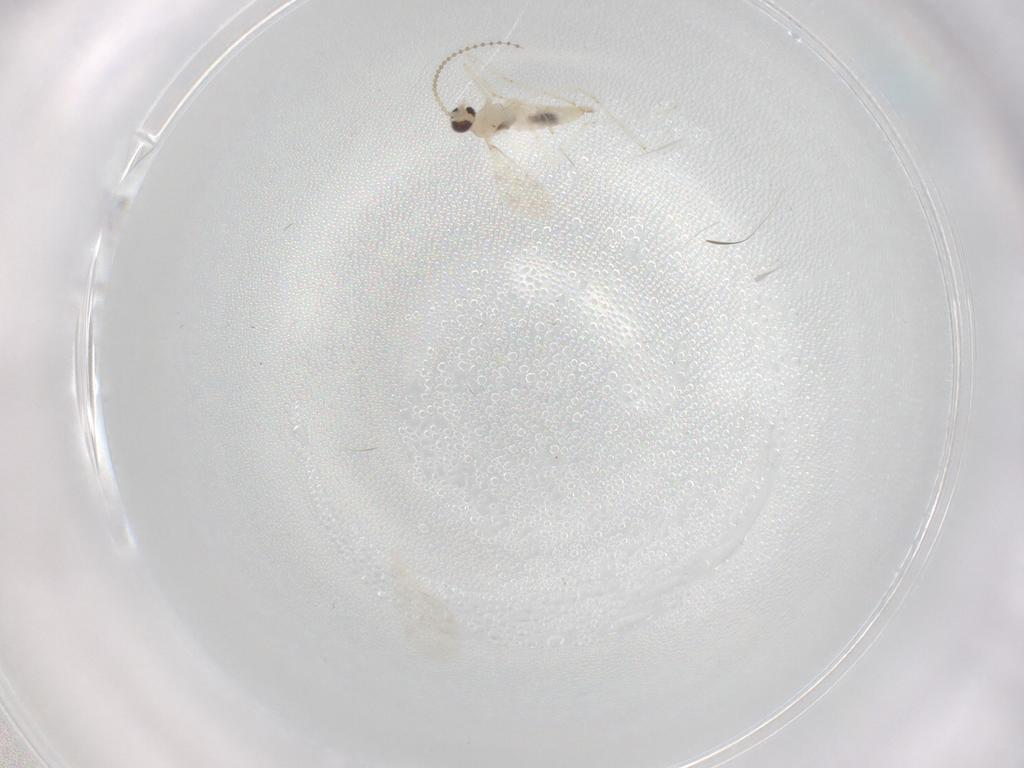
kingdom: Animalia
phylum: Arthropoda
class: Insecta
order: Diptera
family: Cecidomyiidae
